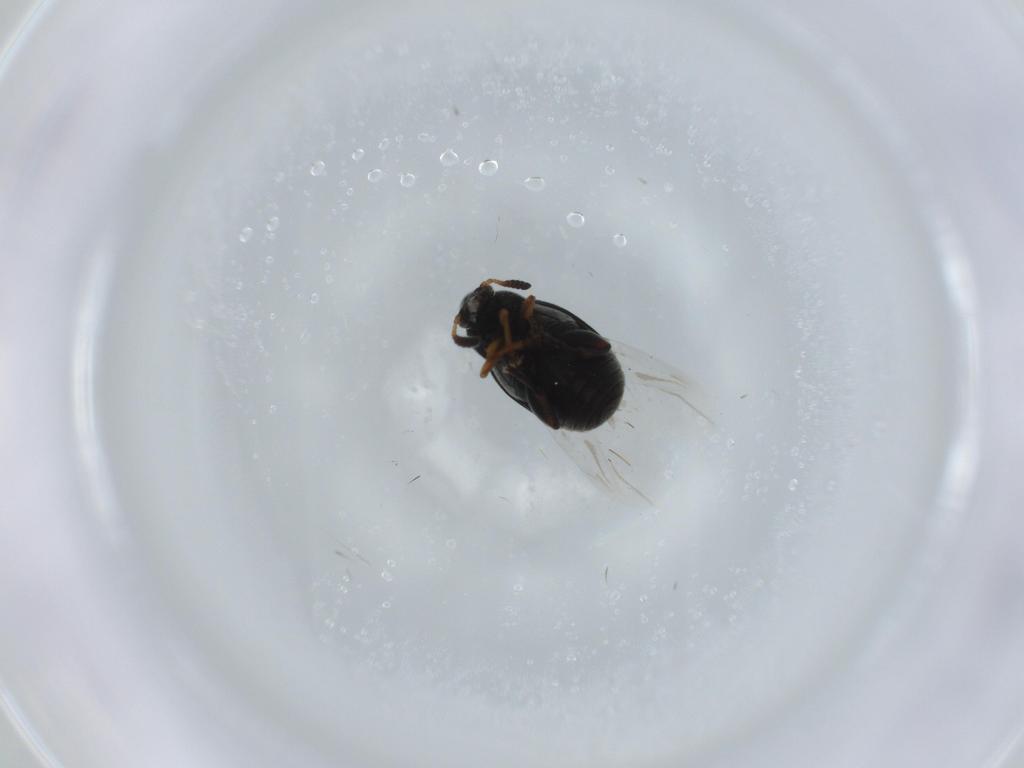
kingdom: Animalia
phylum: Arthropoda
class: Insecta
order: Coleoptera
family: Chrysomelidae
